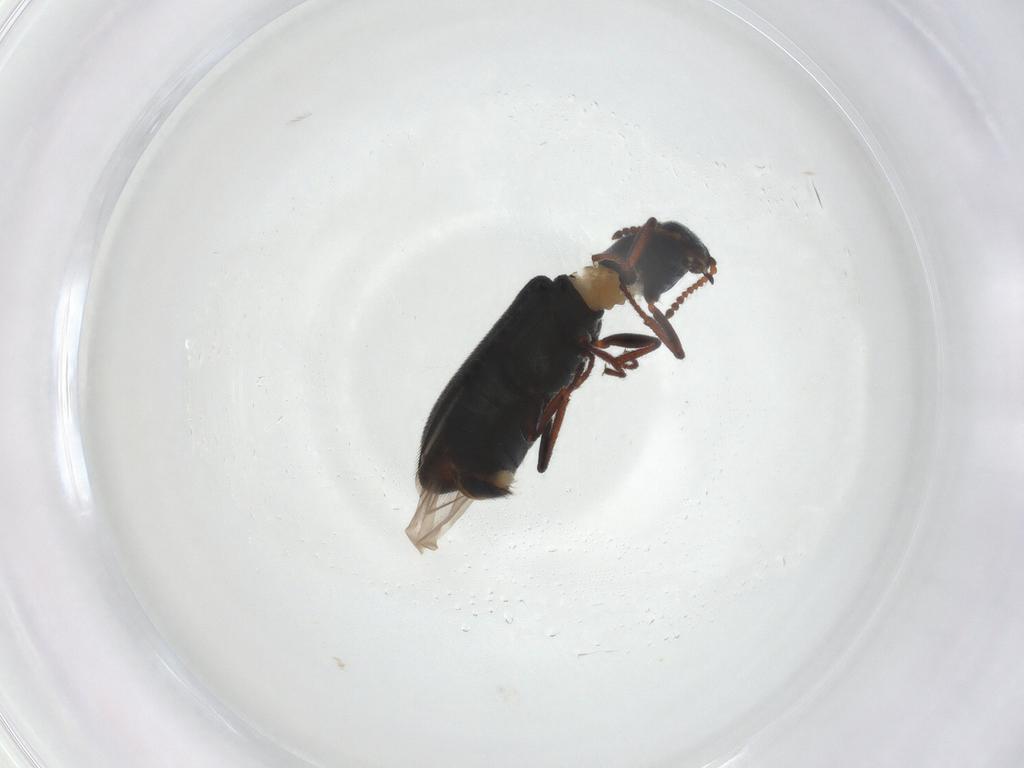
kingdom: Animalia
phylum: Arthropoda
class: Insecta
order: Coleoptera
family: Melyridae
